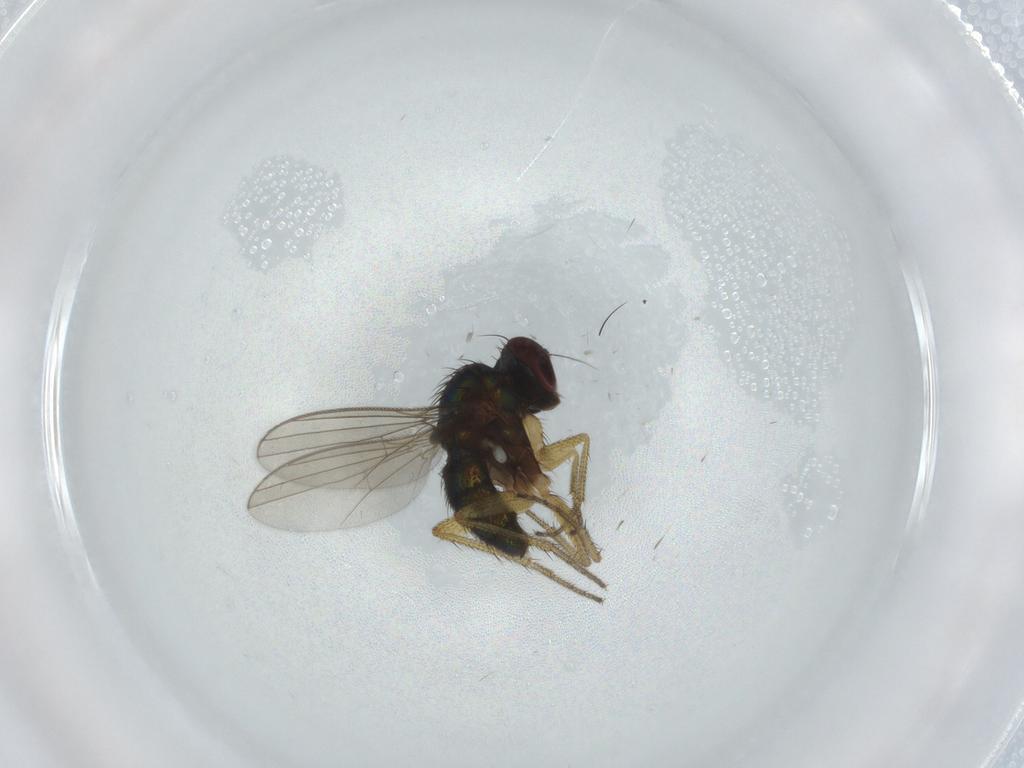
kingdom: Animalia
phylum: Arthropoda
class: Insecta
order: Diptera
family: Dolichopodidae
